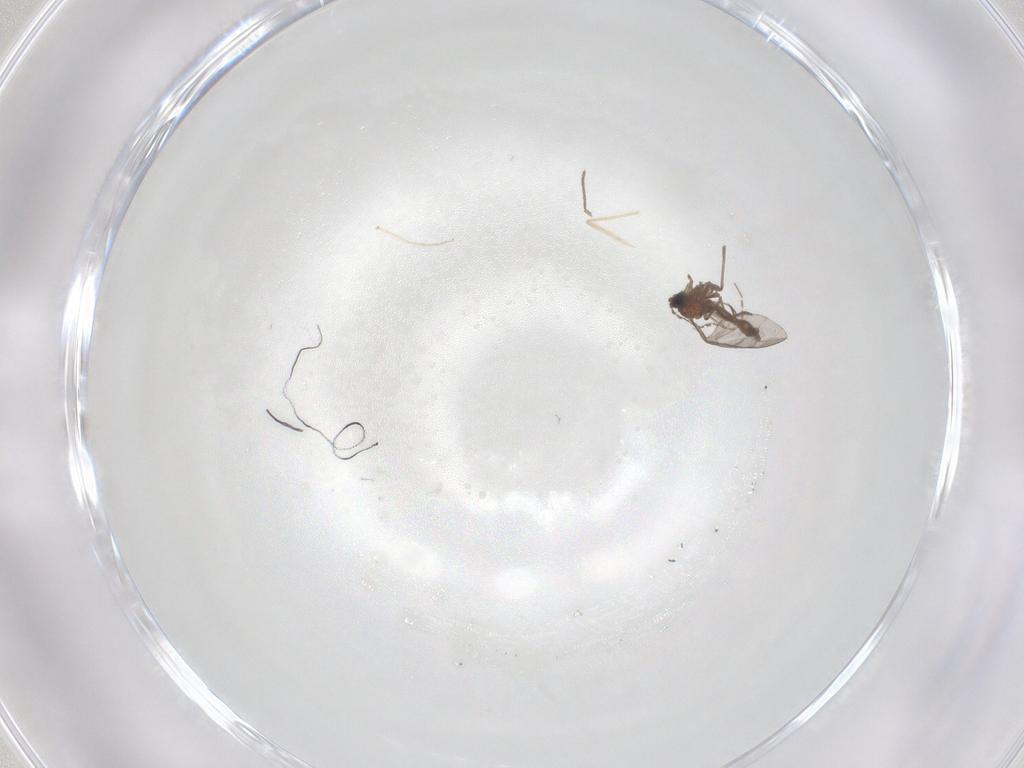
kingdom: Animalia
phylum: Arthropoda
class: Insecta
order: Diptera
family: Chironomidae
